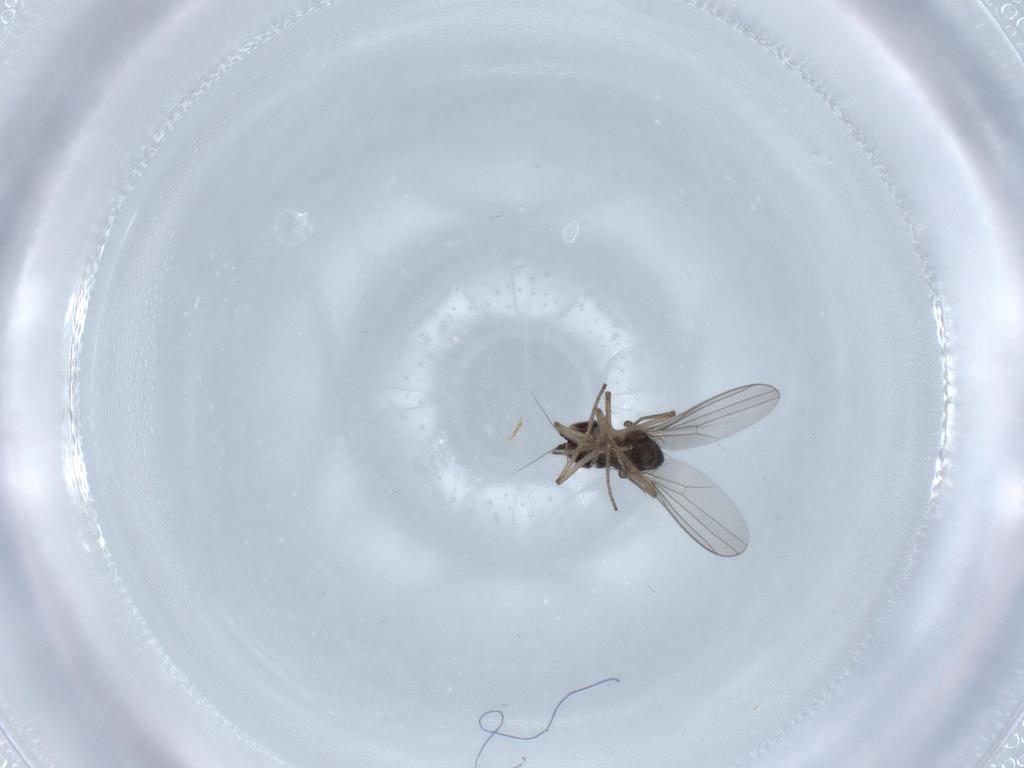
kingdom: Animalia
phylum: Arthropoda
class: Insecta
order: Diptera
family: Dolichopodidae
